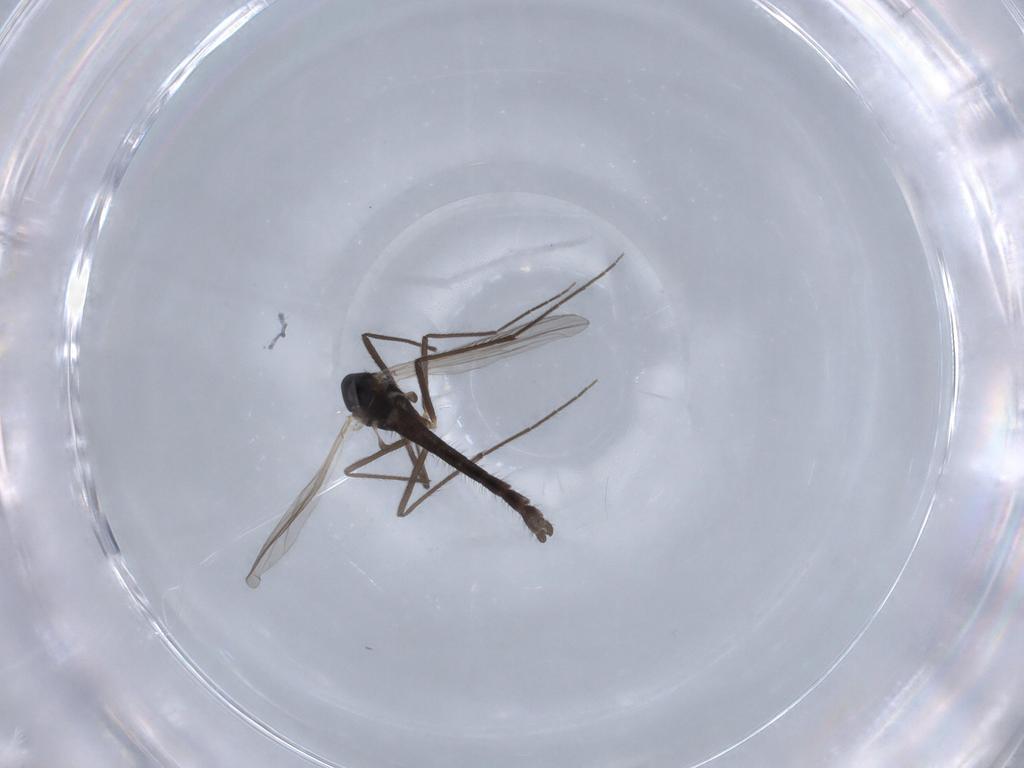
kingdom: Animalia
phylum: Arthropoda
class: Insecta
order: Diptera
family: Chironomidae
